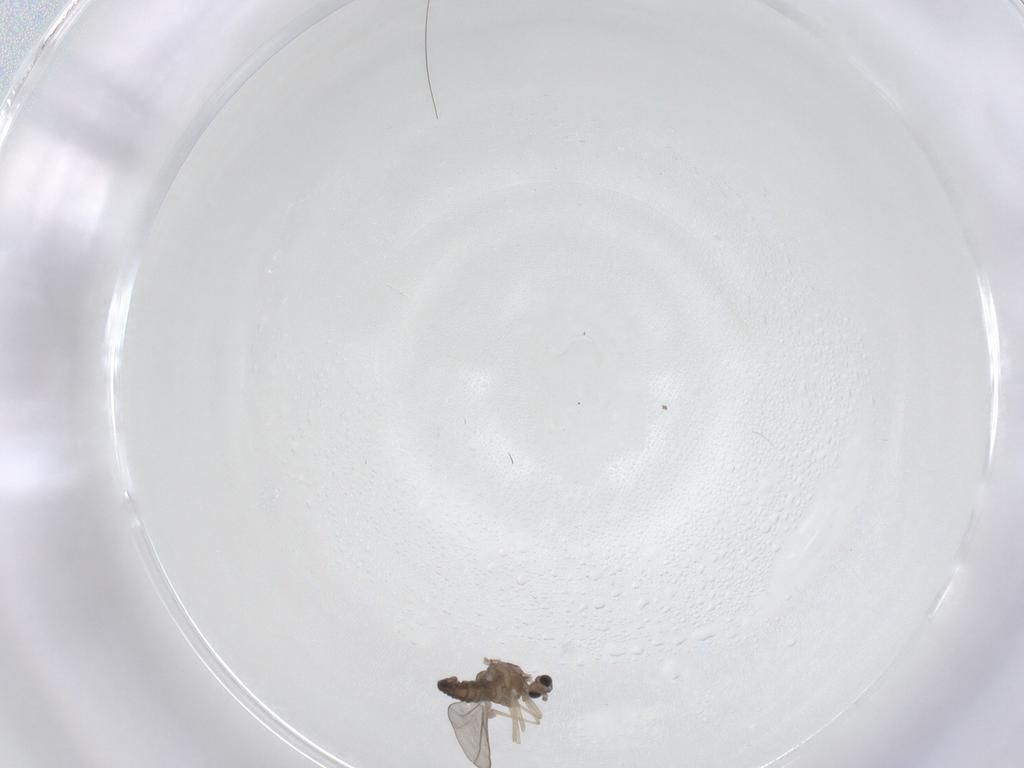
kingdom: Animalia
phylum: Arthropoda
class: Insecta
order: Diptera
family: Ceratopogonidae
